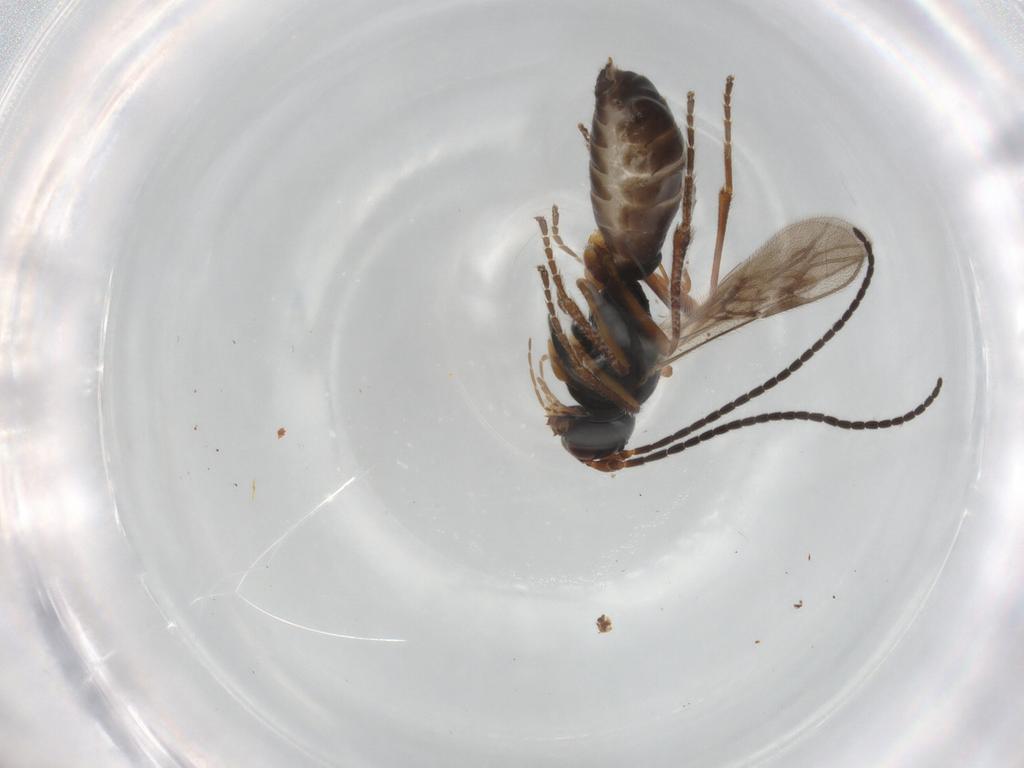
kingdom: Animalia
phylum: Arthropoda
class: Insecta
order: Hymenoptera
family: Braconidae
